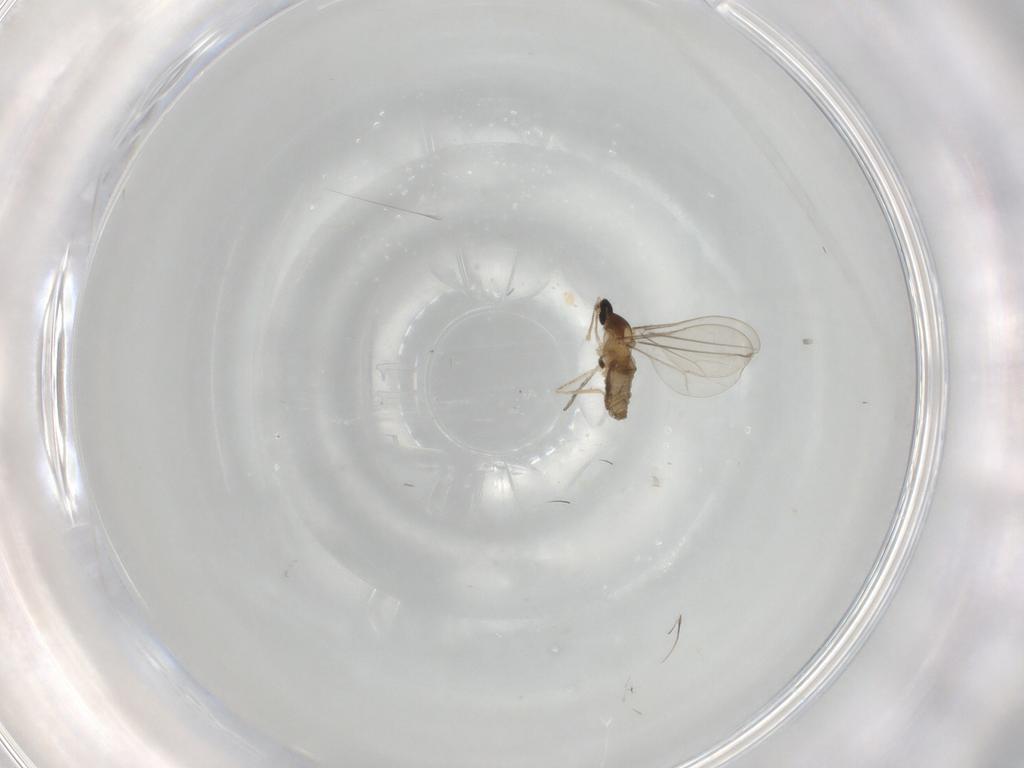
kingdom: Animalia
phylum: Arthropoda
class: Insecta
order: Diptera
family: Cecidomyiidae
